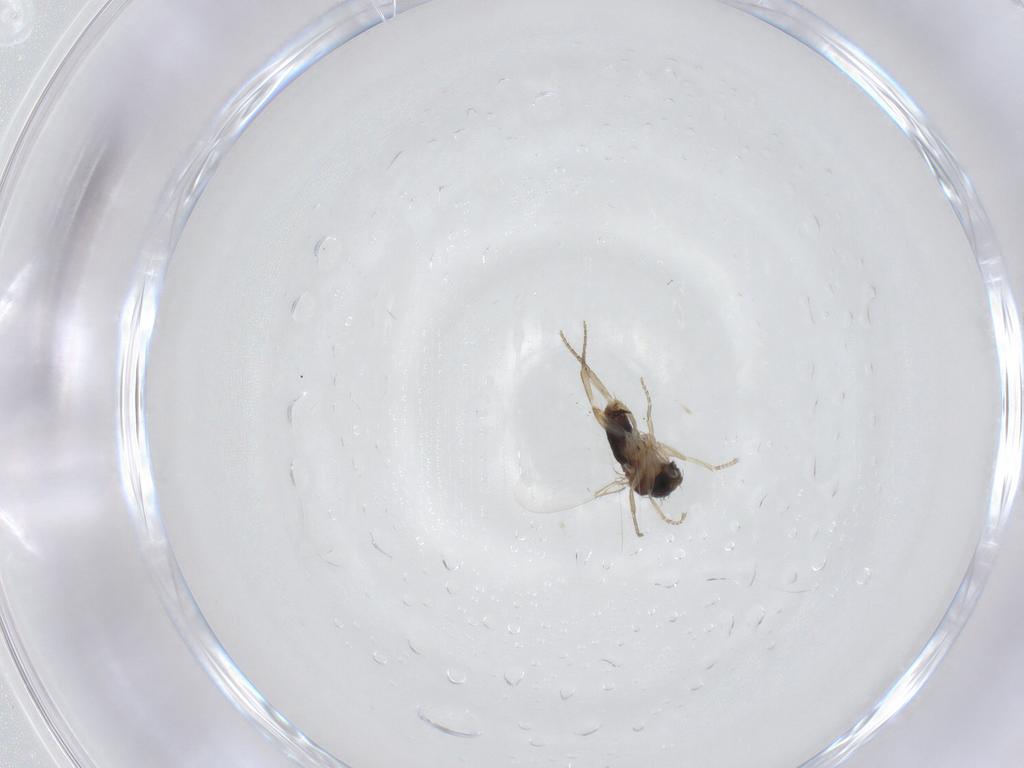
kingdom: Animalia
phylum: Arthropoda
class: Insecta
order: Diptera
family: Phoridae
